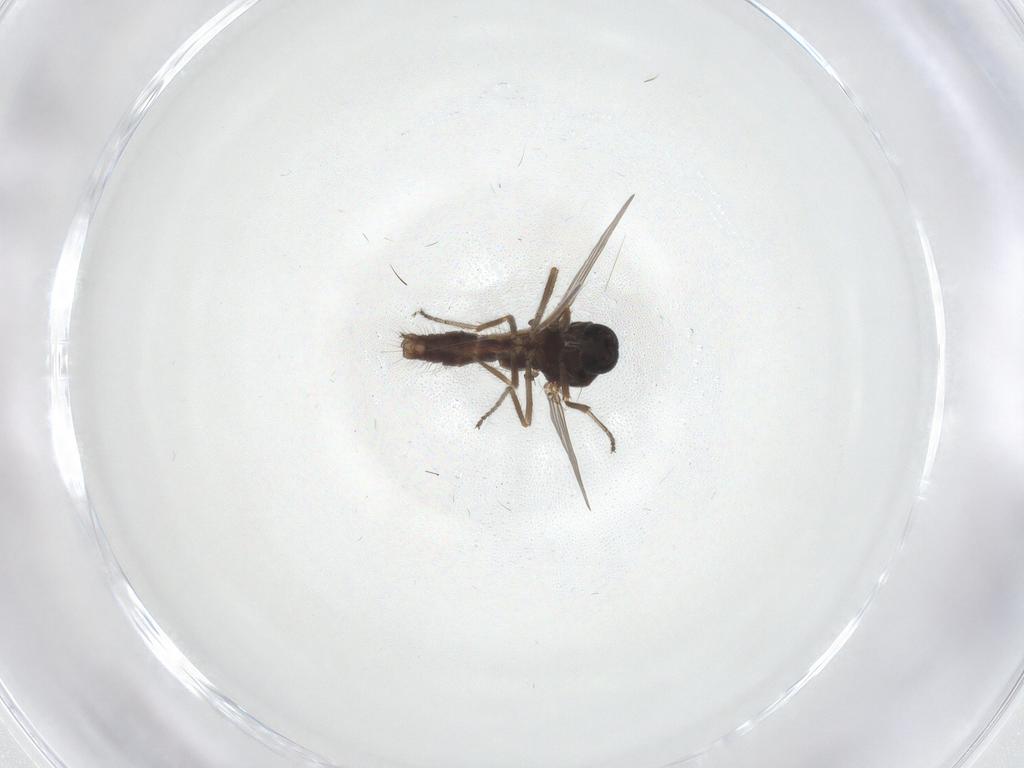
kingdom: Animalia
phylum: Arthropoda
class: Insecta
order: Diptera
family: Ceratopogonidae
